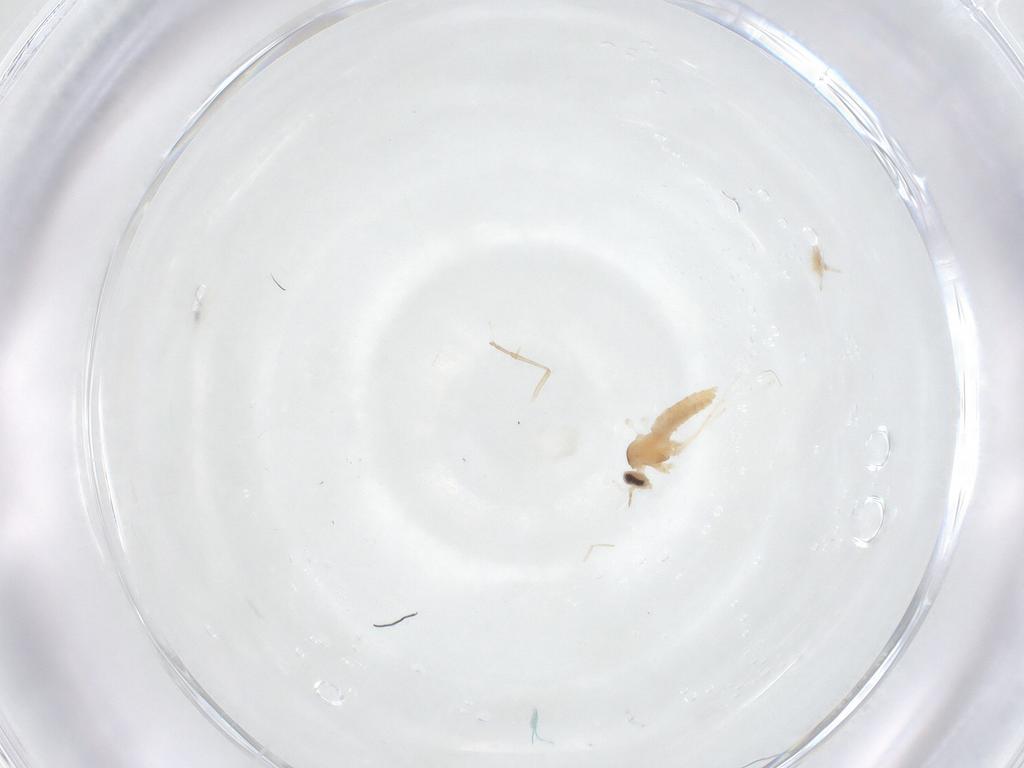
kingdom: Animalia
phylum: Arthropoda
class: Insecta
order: Diptera
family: Cecidomyiidae
